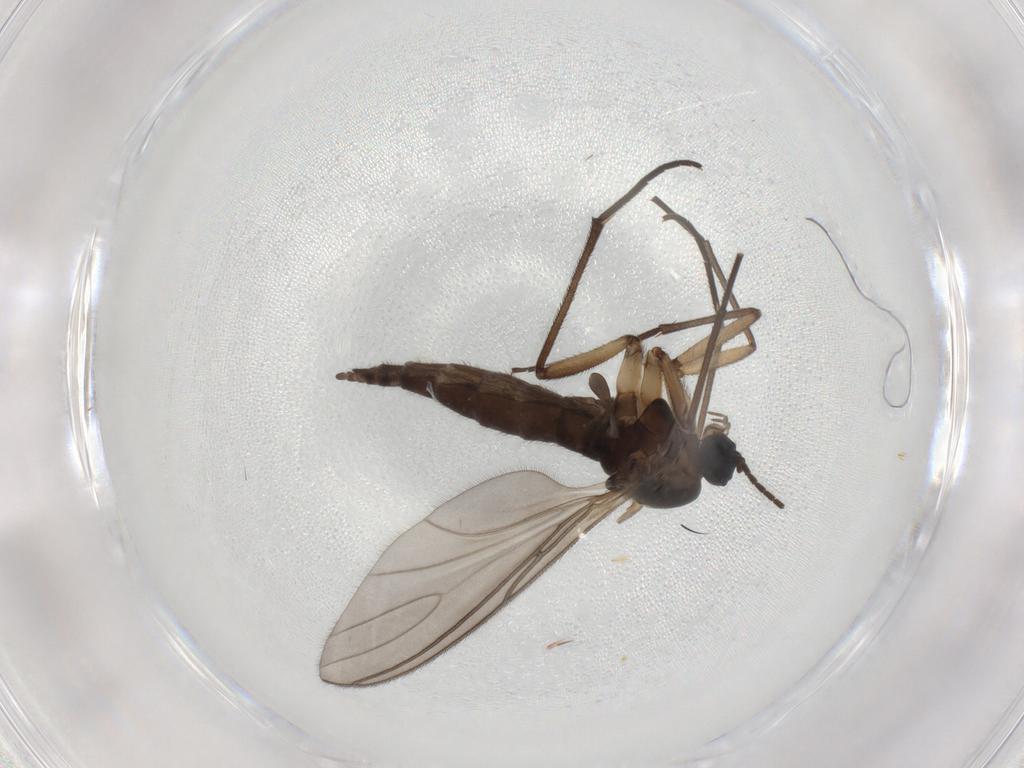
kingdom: Animalia
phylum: Arthropoda
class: Insecta
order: Diptera
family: Sciaridae
